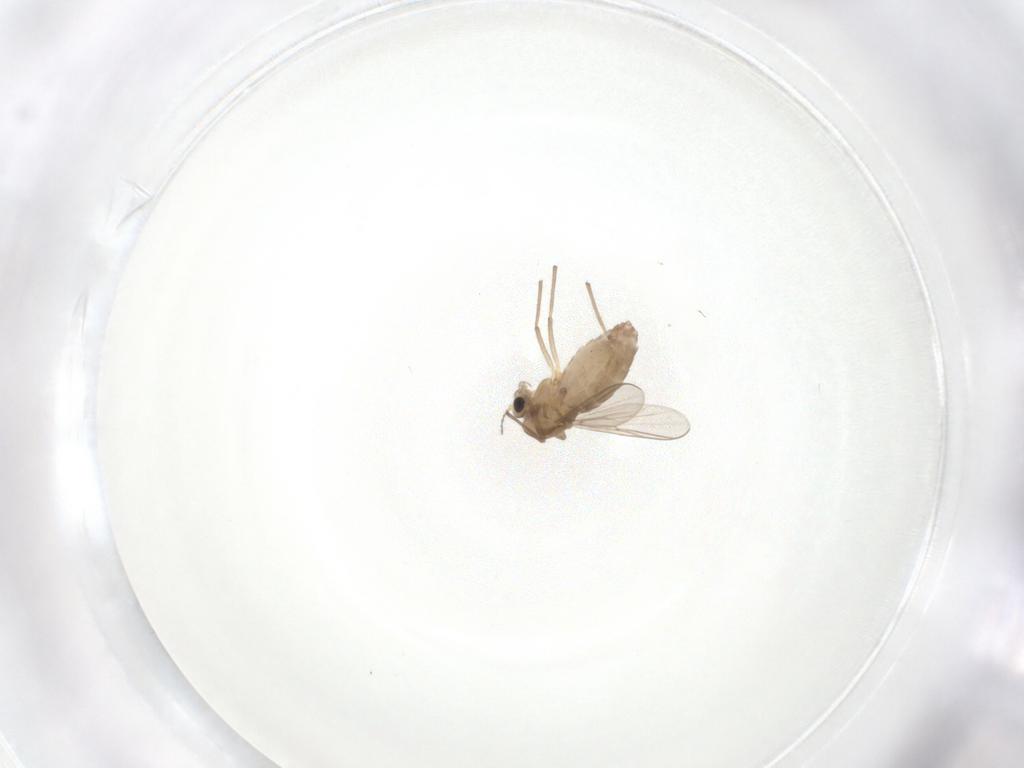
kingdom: Animalia
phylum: Arthropoda
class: Insecta
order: Diptera
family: Chironomidae
